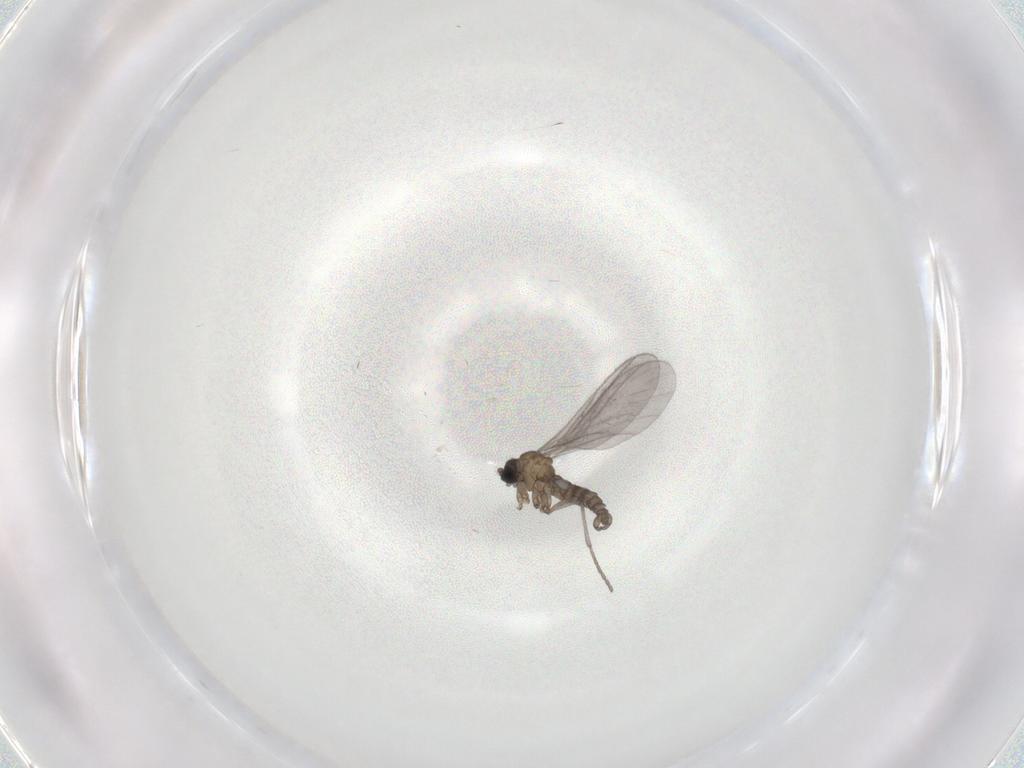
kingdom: Animalia
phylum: Arthropoda
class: Insecta
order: Diptera
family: Sciaridae
